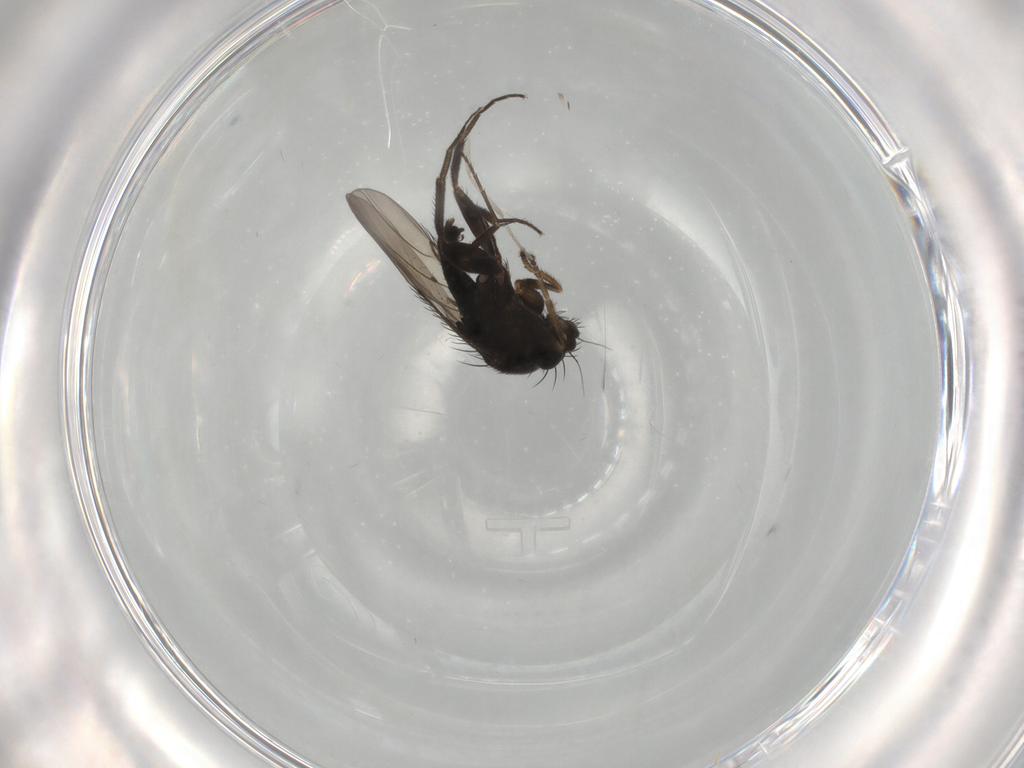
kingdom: Animalia
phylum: Arthropoda
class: Insecta
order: Diptera
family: Phoridae
